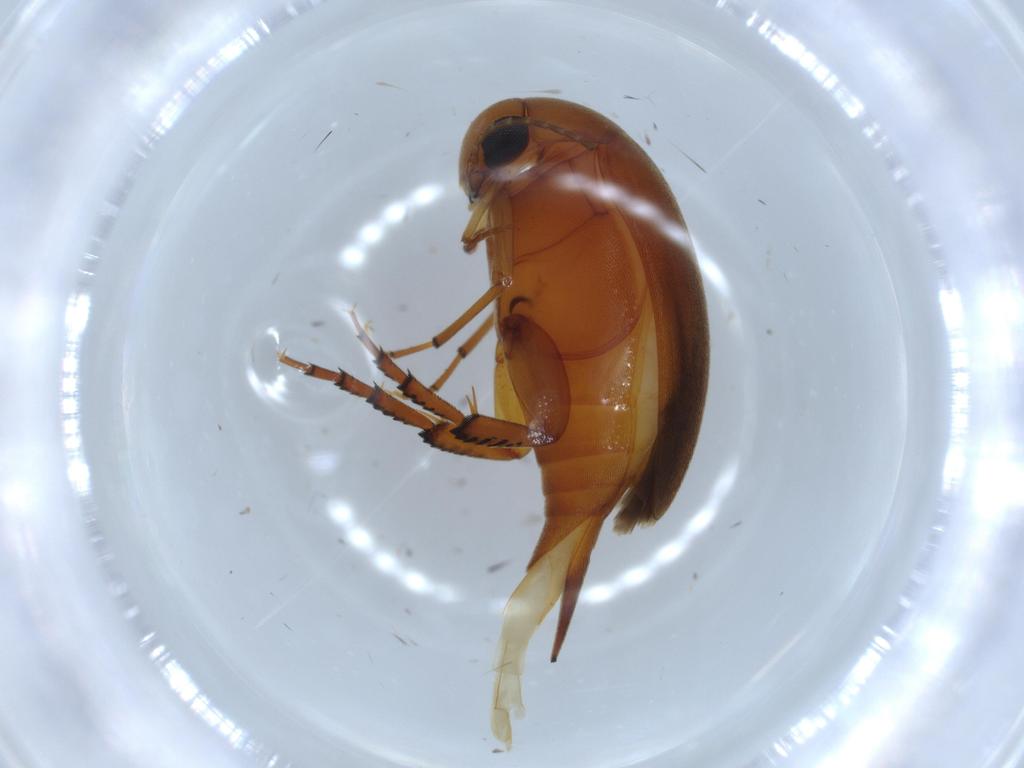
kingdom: Animalia
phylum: Arthropoda
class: Insecta
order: Coleoptera
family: Mordellidae
